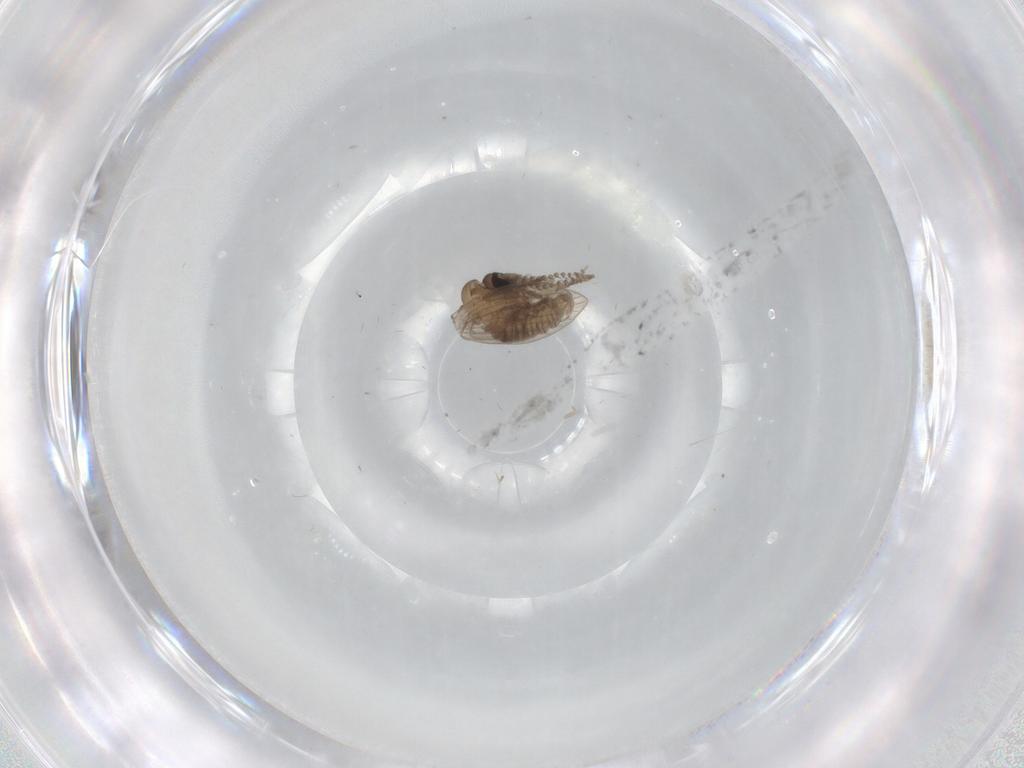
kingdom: Animalia
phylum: Arthropoda
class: Insecta
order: Diptera
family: Psychodidae
